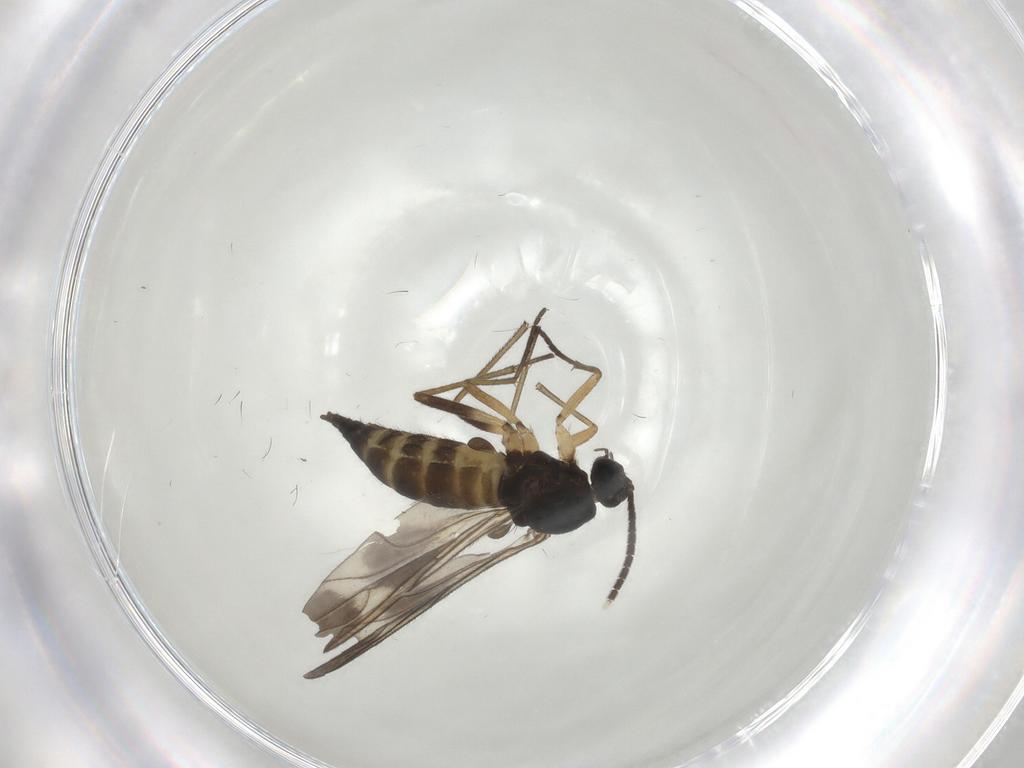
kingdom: Animalia
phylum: Arthropoda
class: Insecta
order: Diptera
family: Sciaridae
